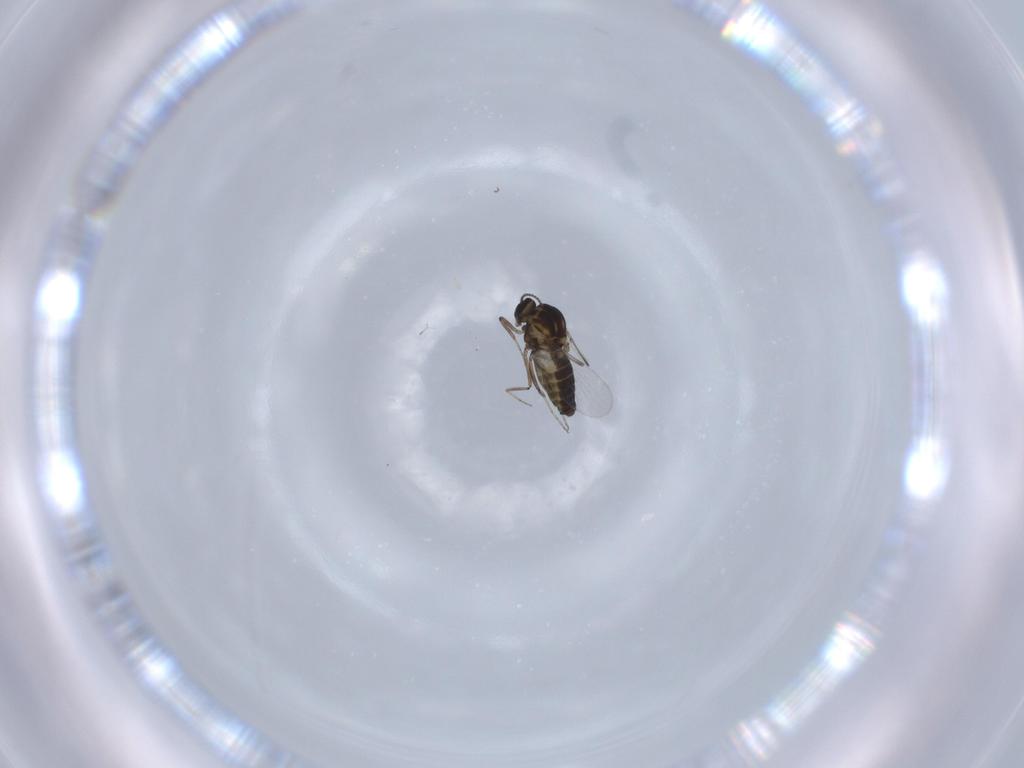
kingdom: Animalia
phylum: Arthropoda
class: Insecta
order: Diptera
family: Ceratopogonidae
